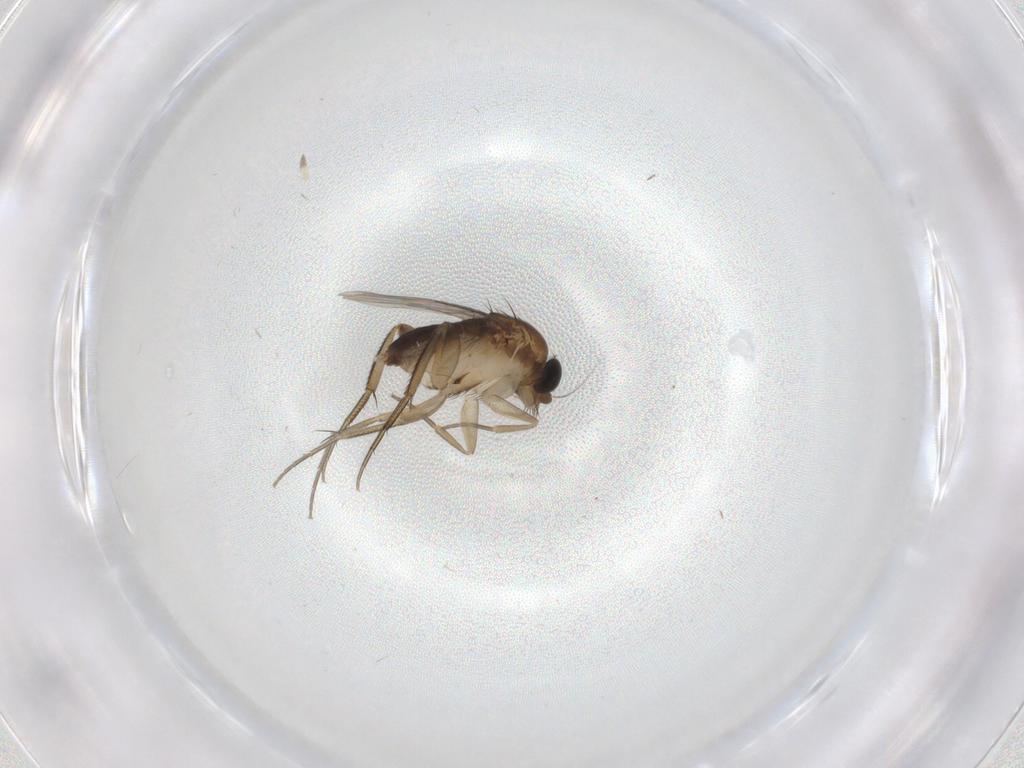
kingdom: Animalia
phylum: Arthropoda
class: Insecta
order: Diptera
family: Phoridae
